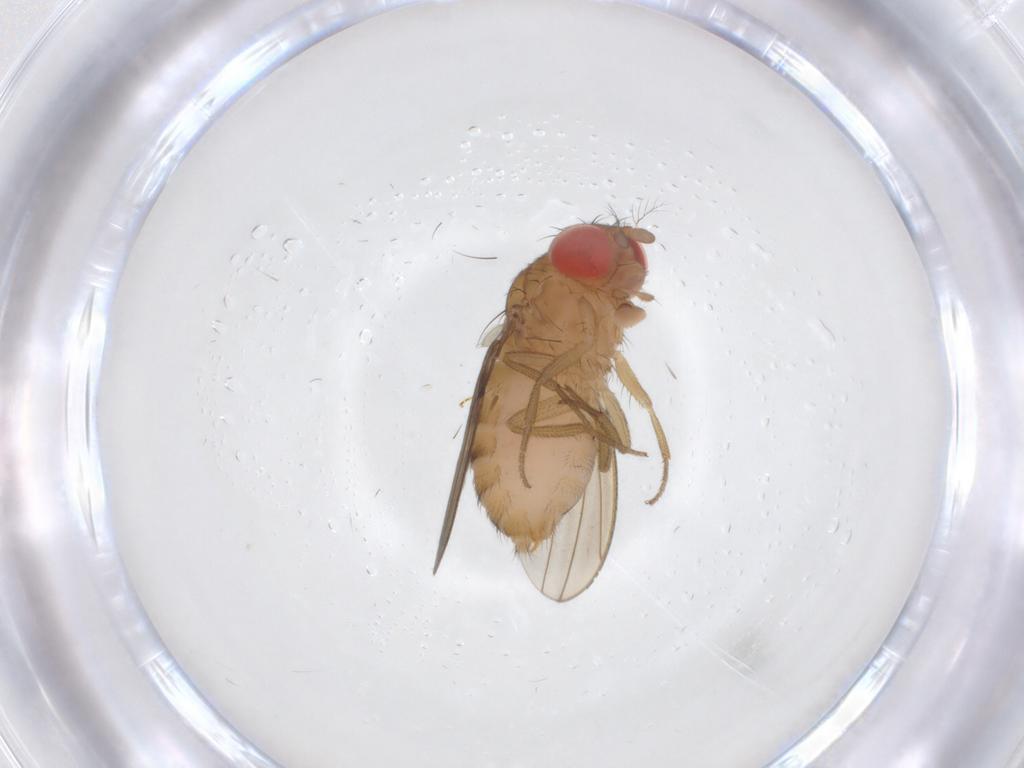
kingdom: Animalia
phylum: Arthropoda
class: Insecta
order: Diptera
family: Drosophilidae
